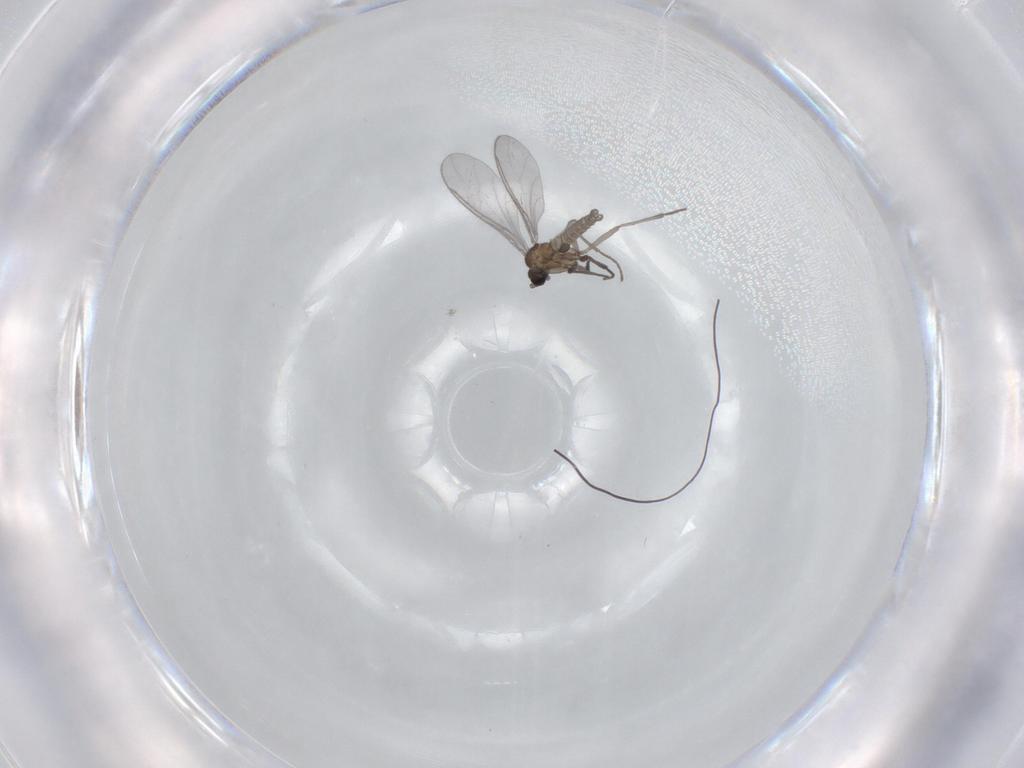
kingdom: Animalia
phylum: Arthropoda
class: Insecta
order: Diptera
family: Phoridae
